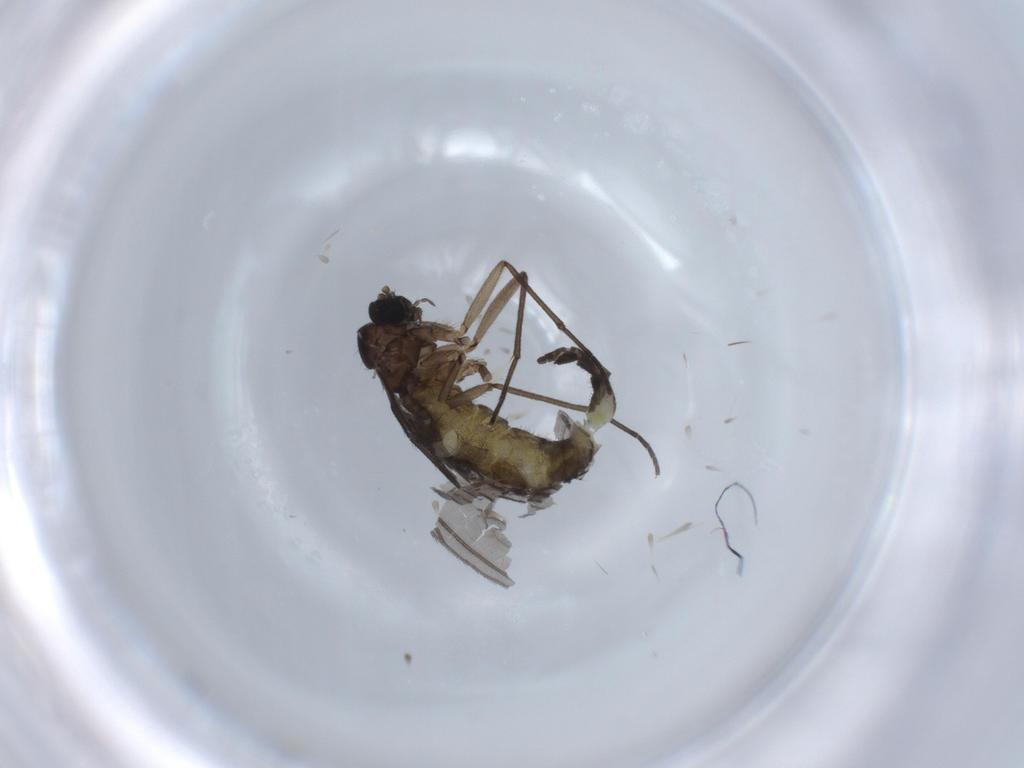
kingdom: Animalia
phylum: Arthropoda
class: Insecta
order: Diptera
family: Sciaridae
